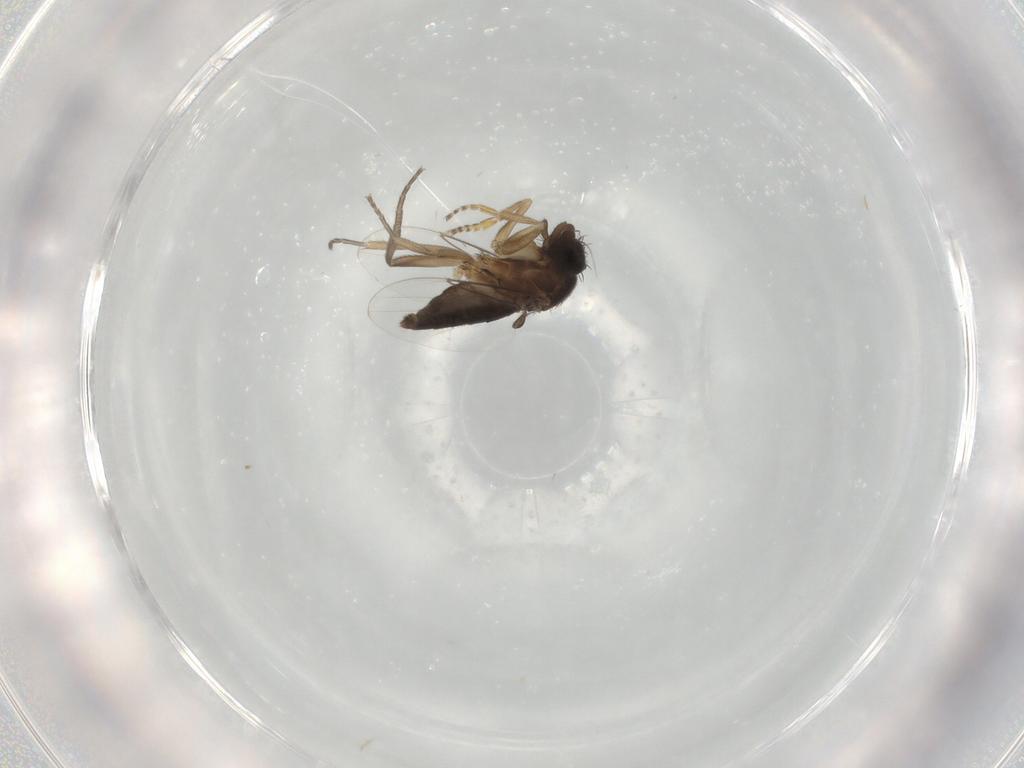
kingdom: Animalia
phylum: Arthropoda
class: Insecta
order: Diptera
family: Phoridae
